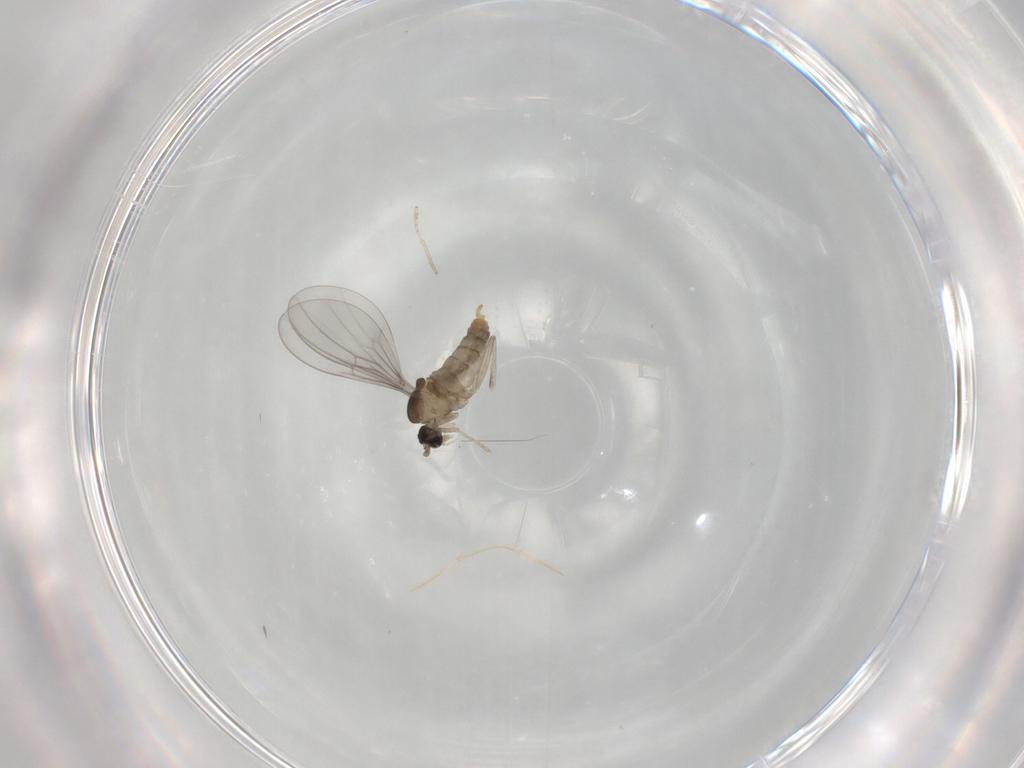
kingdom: Animalia
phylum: Arthropoda
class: Insecta
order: Diptera
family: Cecidomyiidae
